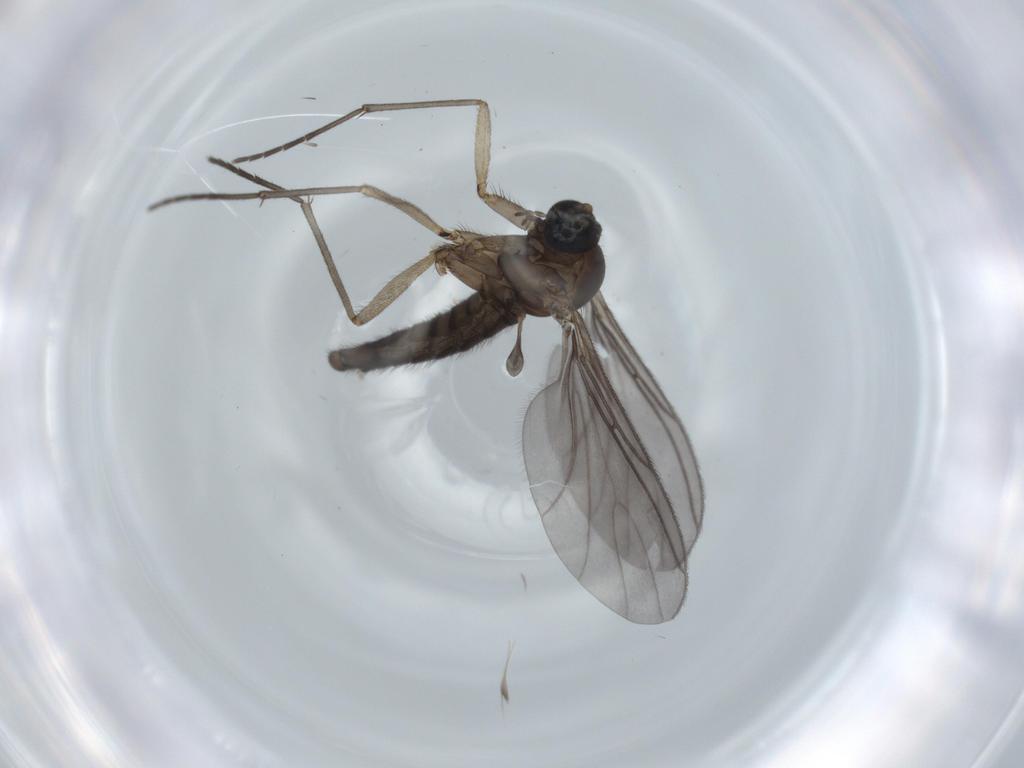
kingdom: Animalia
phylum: Arthropoda
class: Insecta
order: Diptera
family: Sciaridae
